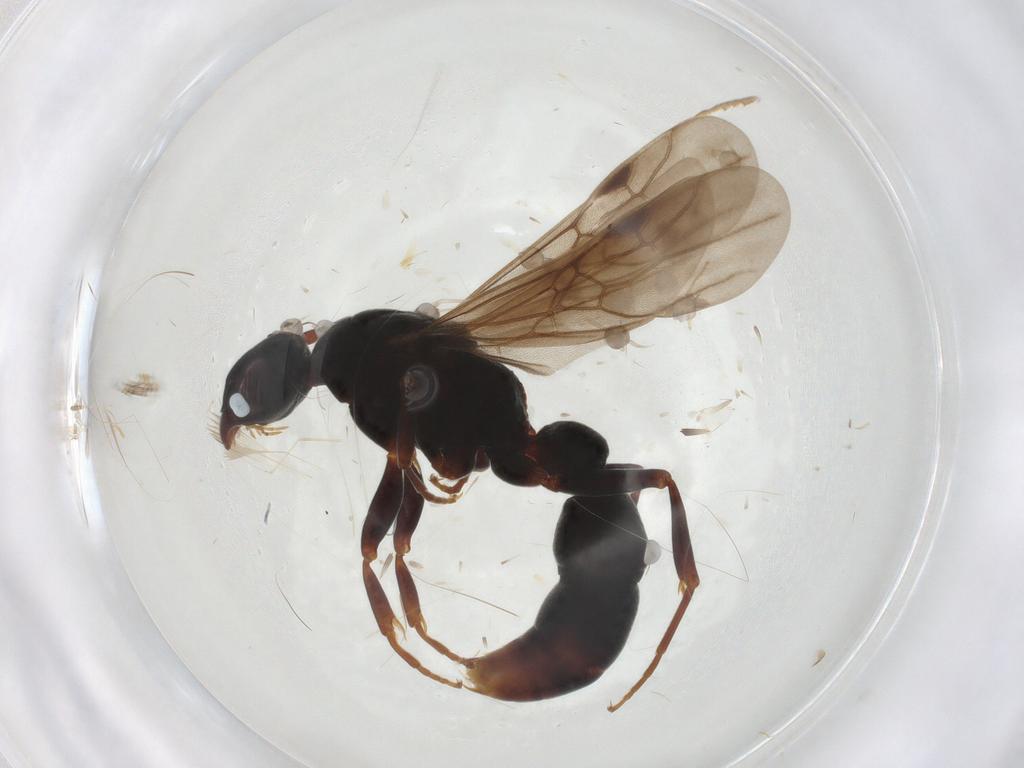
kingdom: Animalia
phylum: Arthropoda
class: Insecta
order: Hymenoptera
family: Formicidae
